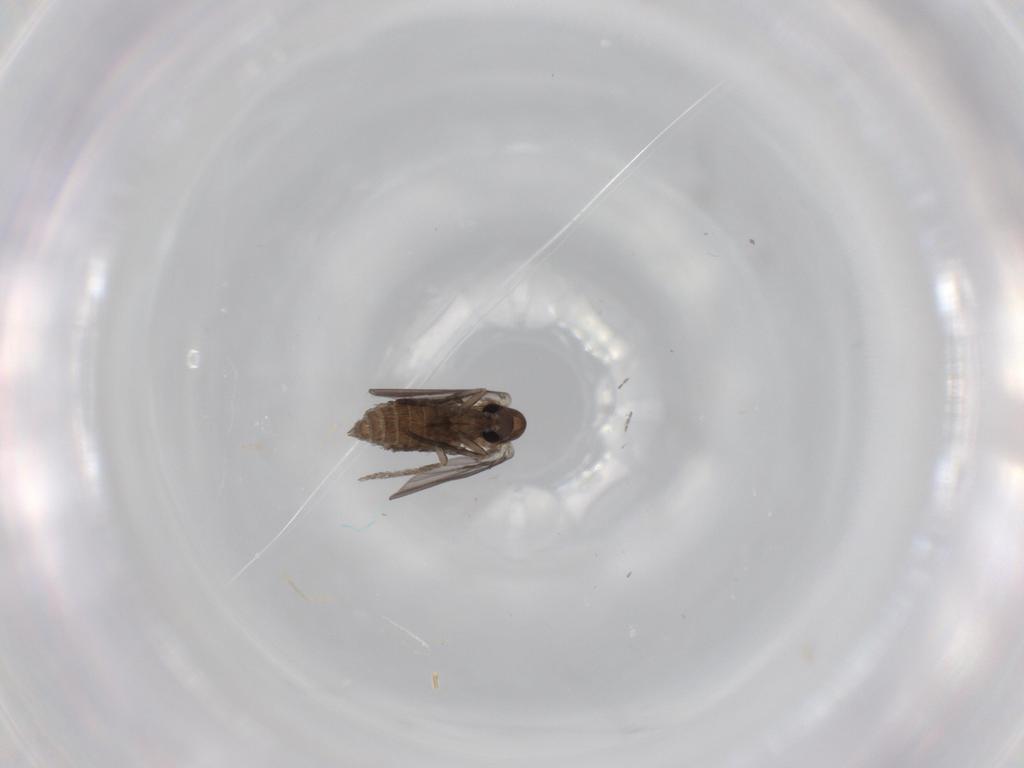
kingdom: Animalia
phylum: Arthropoda
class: Insecta
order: Diptera
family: Psychodidae
